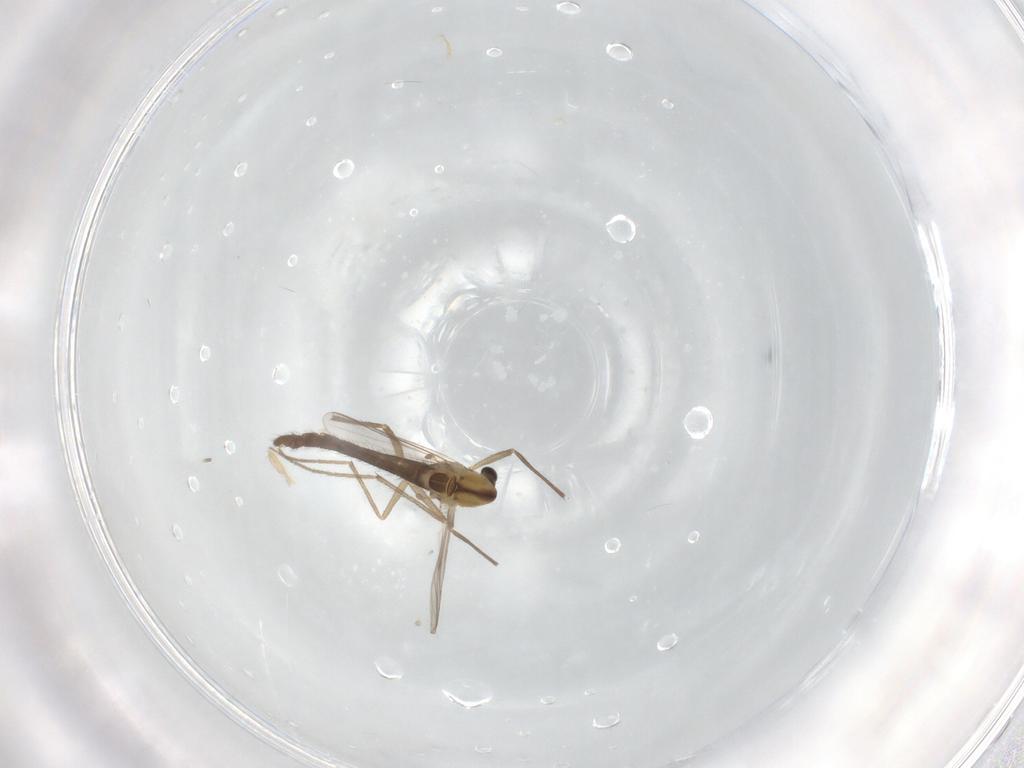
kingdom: Animalia
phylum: Arthropoda
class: Insecta
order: Diptera
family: Chironomidae
